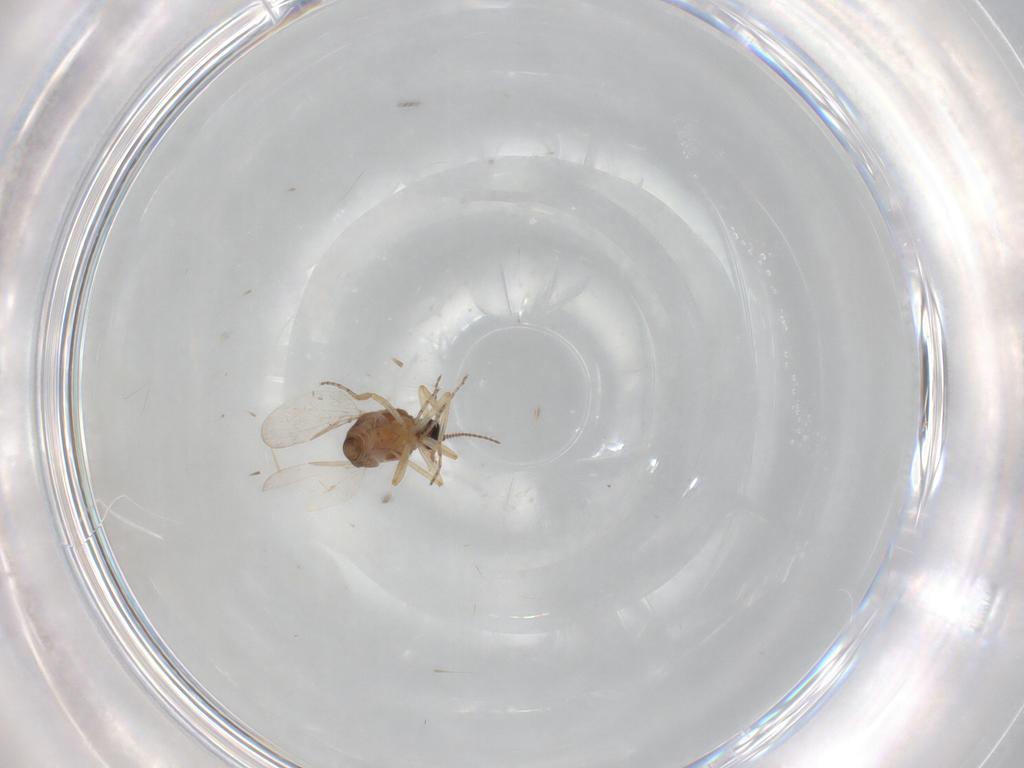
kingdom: Animalia
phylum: Arthropoda
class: Insecta
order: Diptera
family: Ceratopogonidae
